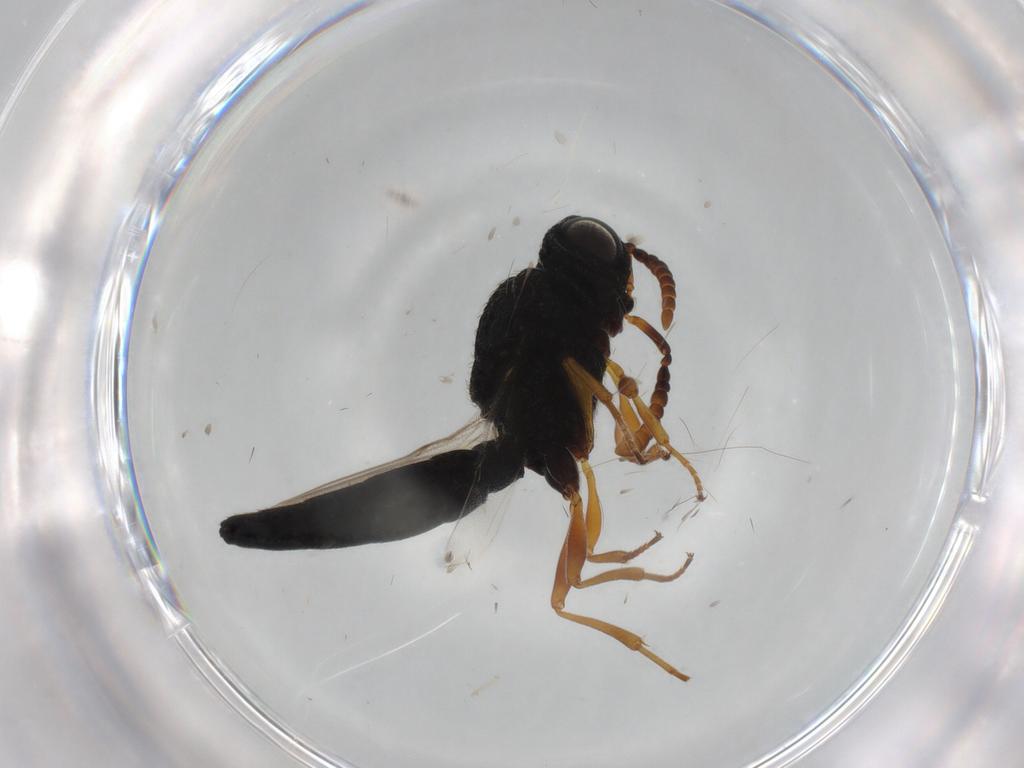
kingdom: Animalia
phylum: Arthropoda
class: Insecta
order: Hymenoptera
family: Scelionidae
